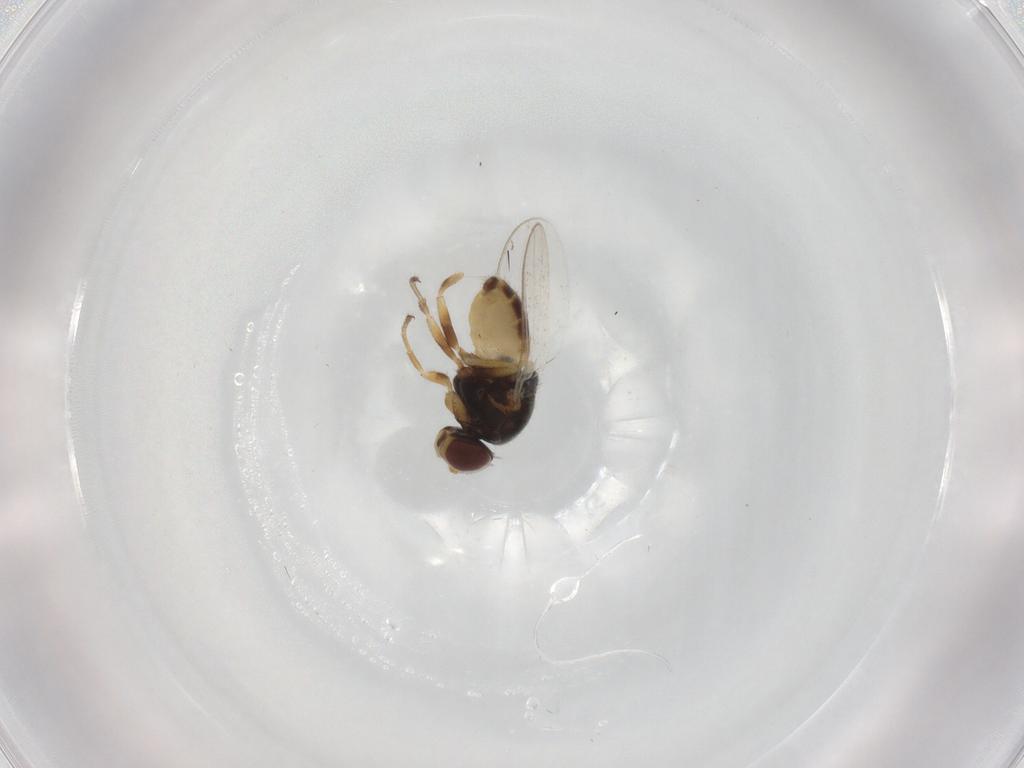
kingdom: Animalia
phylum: Arthropoda
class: Insecta
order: Diptera
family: Chloropidae
